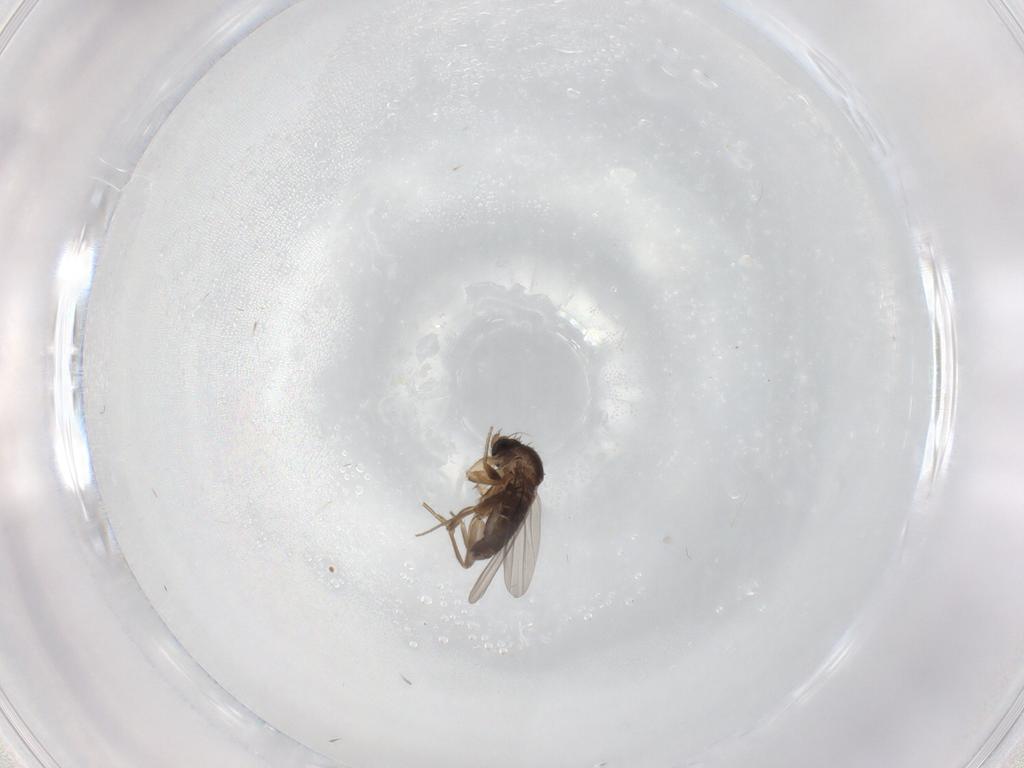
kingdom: Animalia
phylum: Arthropoda
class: Insecta
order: Diptera
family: Phoridae
